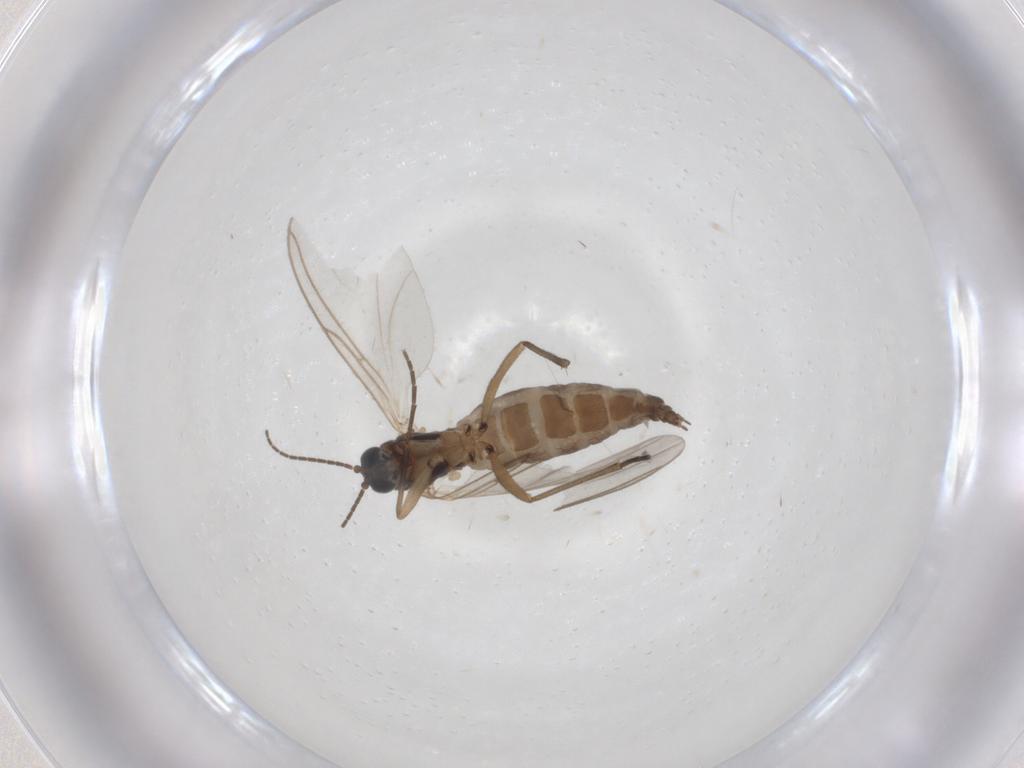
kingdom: Animalia
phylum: Arthropoda
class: Insecta
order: Diptera
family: Sciaridae
